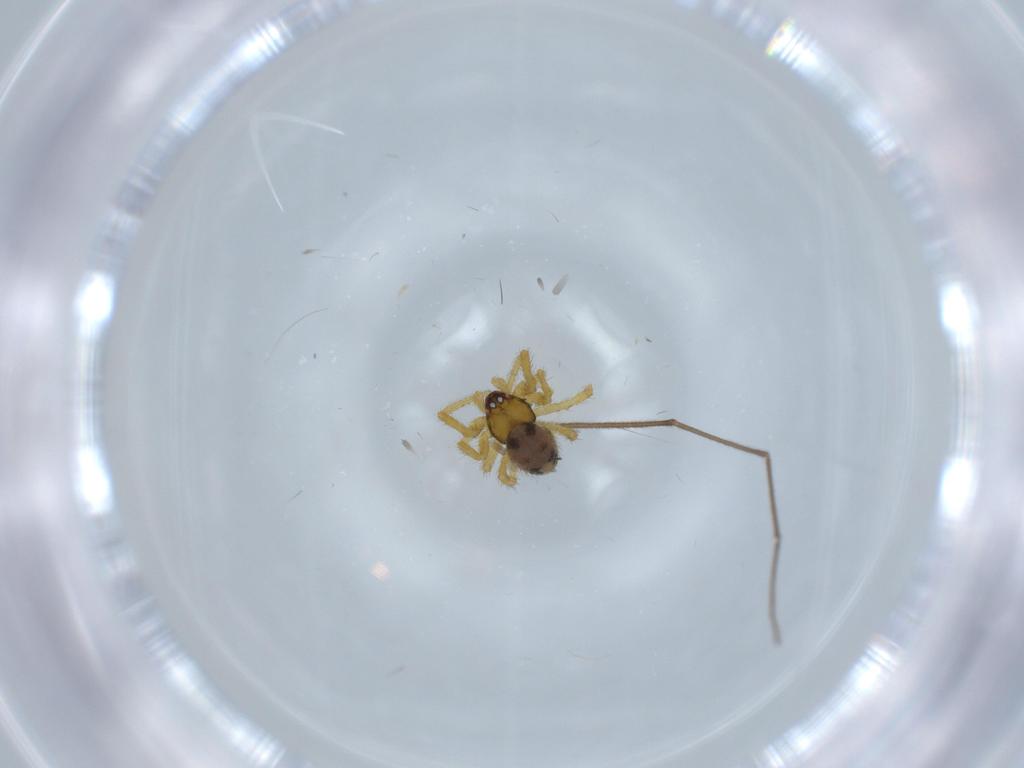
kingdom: Animalia
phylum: Arthropoda
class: Arachnida
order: Araneae
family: Theridiidae
